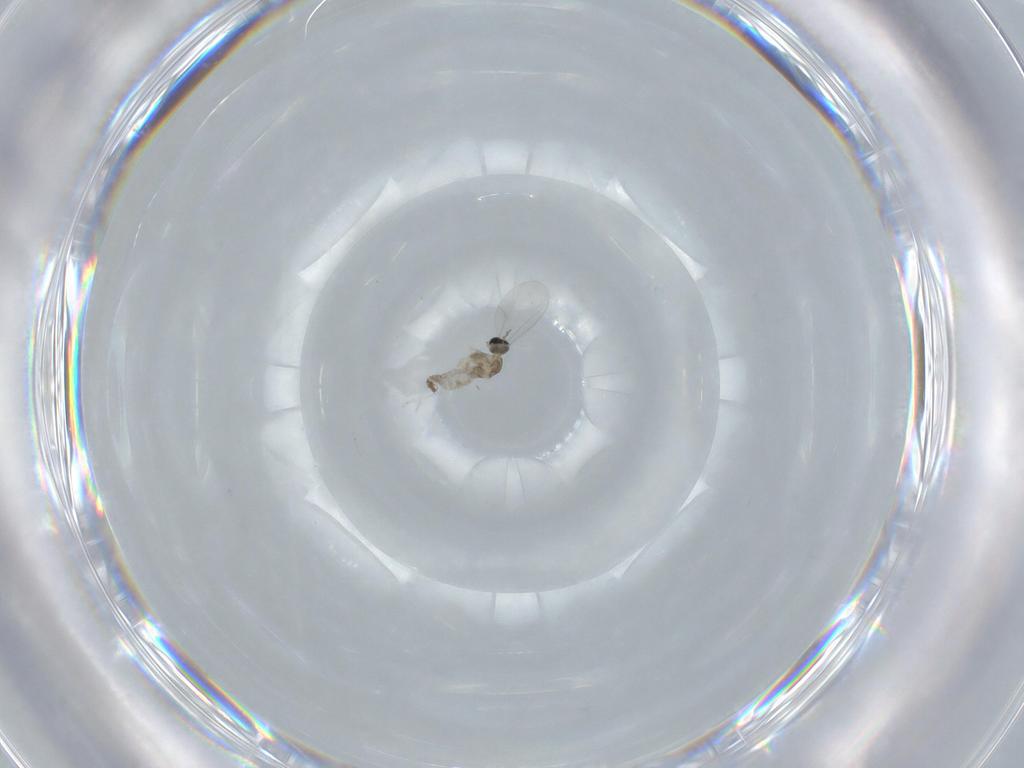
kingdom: Animalia
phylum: Arthropoda
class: Insecta
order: Diptera
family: Cecidomyiidae
